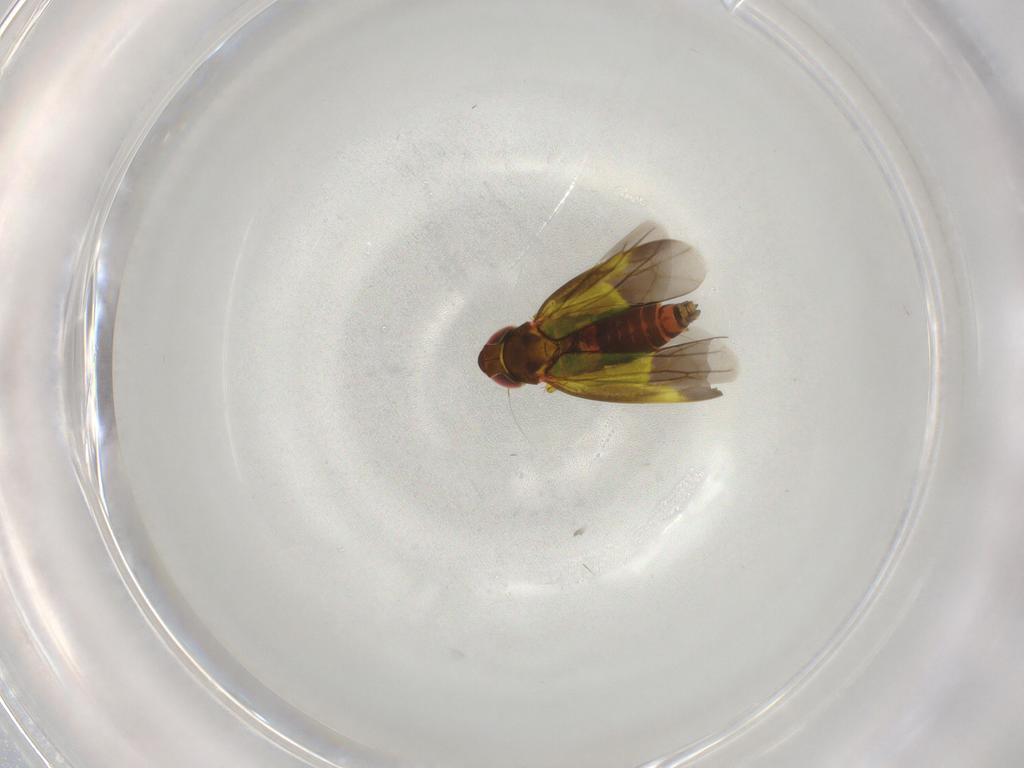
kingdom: Animalia
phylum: Arthropoda
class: Insecta
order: Hemiptera
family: Cicadellidae
